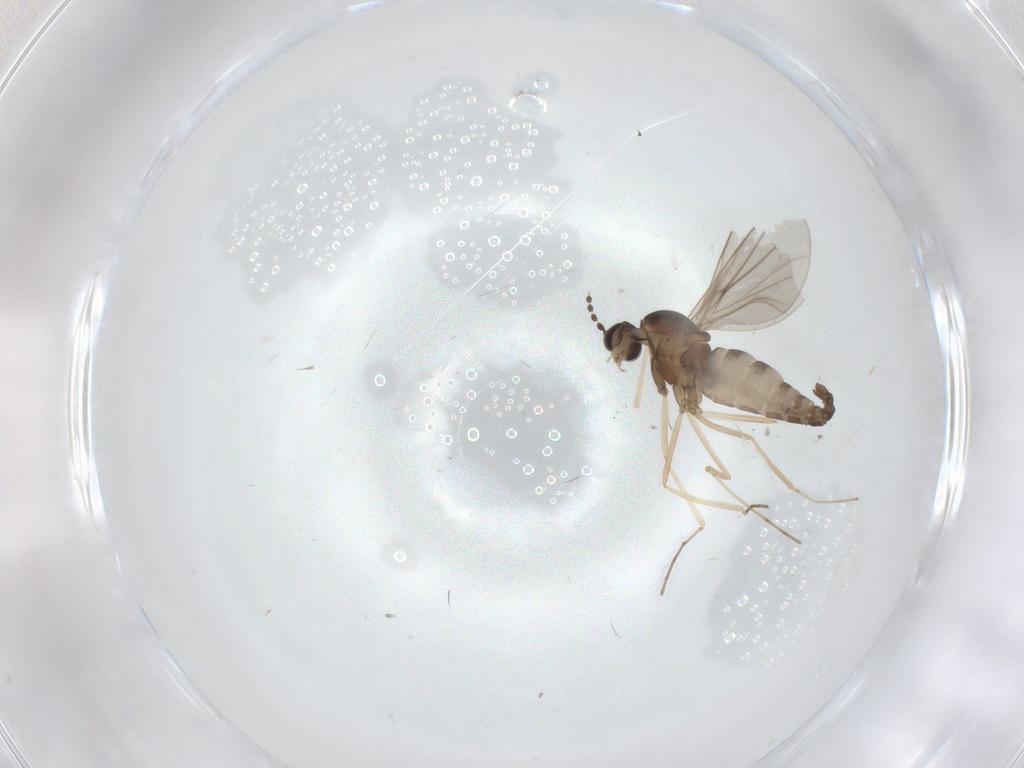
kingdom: Animalia
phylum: Arthropoda
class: Insecta
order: Diptera
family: Cecidomyiidae
